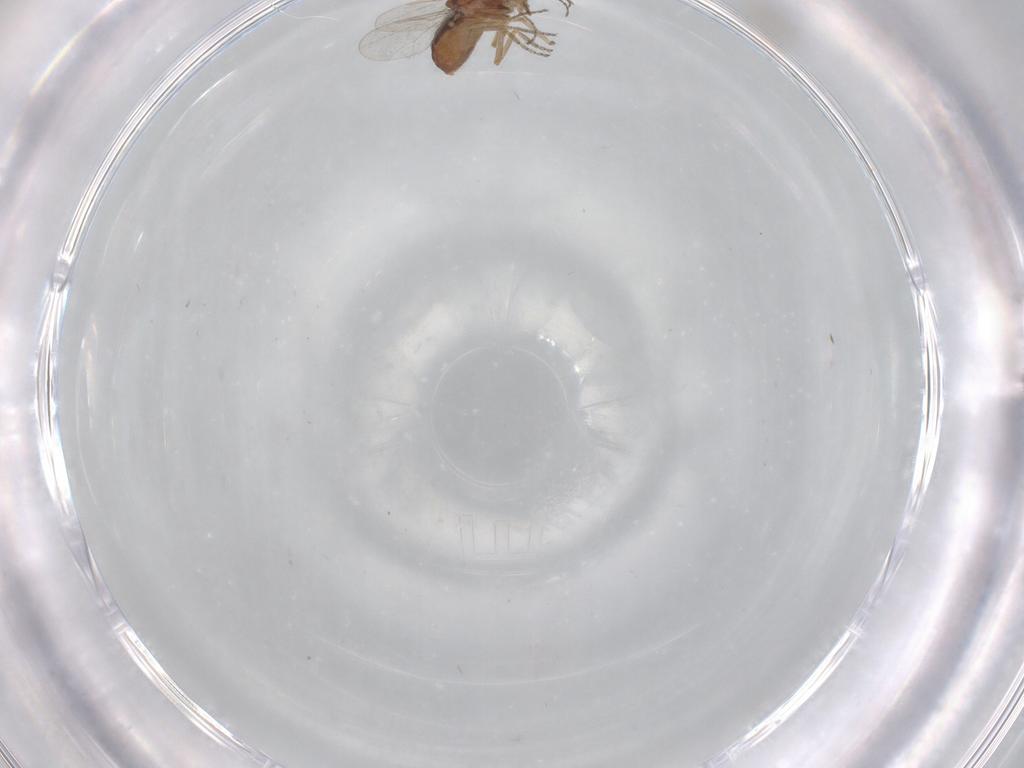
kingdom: Animalia
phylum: Arthropoda
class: Insecta
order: Diptera
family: Ceratopogonidae
